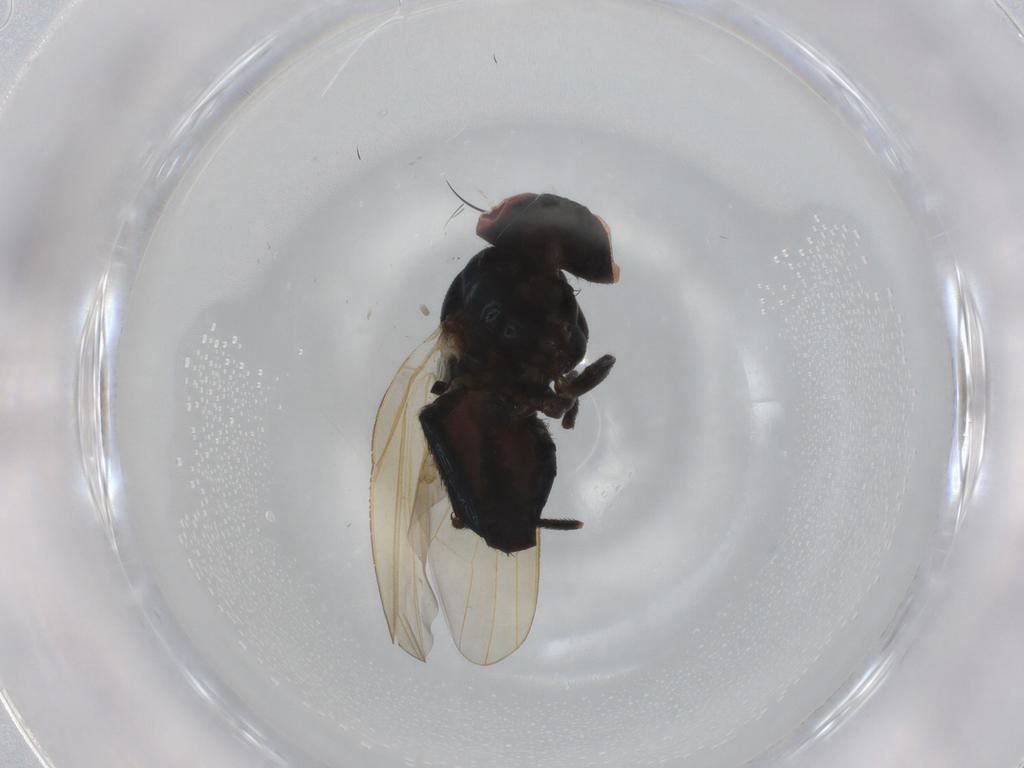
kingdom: Animalia
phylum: Arthropoda
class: Insecta
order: Diptera
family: Lonchaeidae
